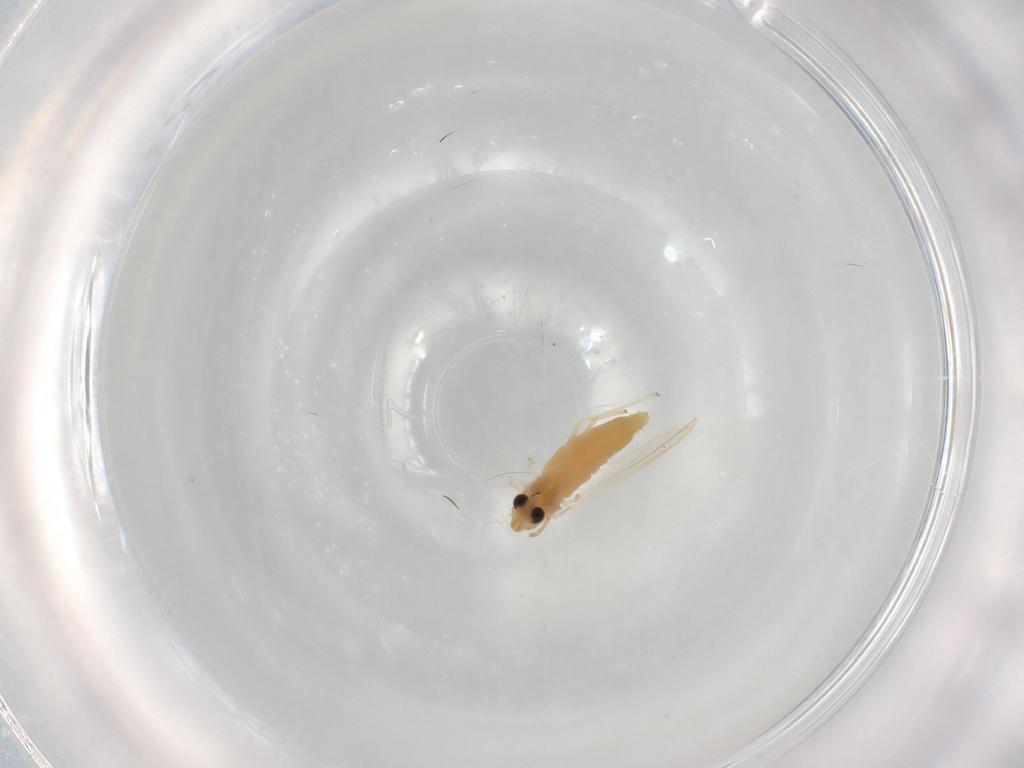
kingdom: Animalia
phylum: Arthropoda
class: Insecta
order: Diptera
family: Chironomidae
